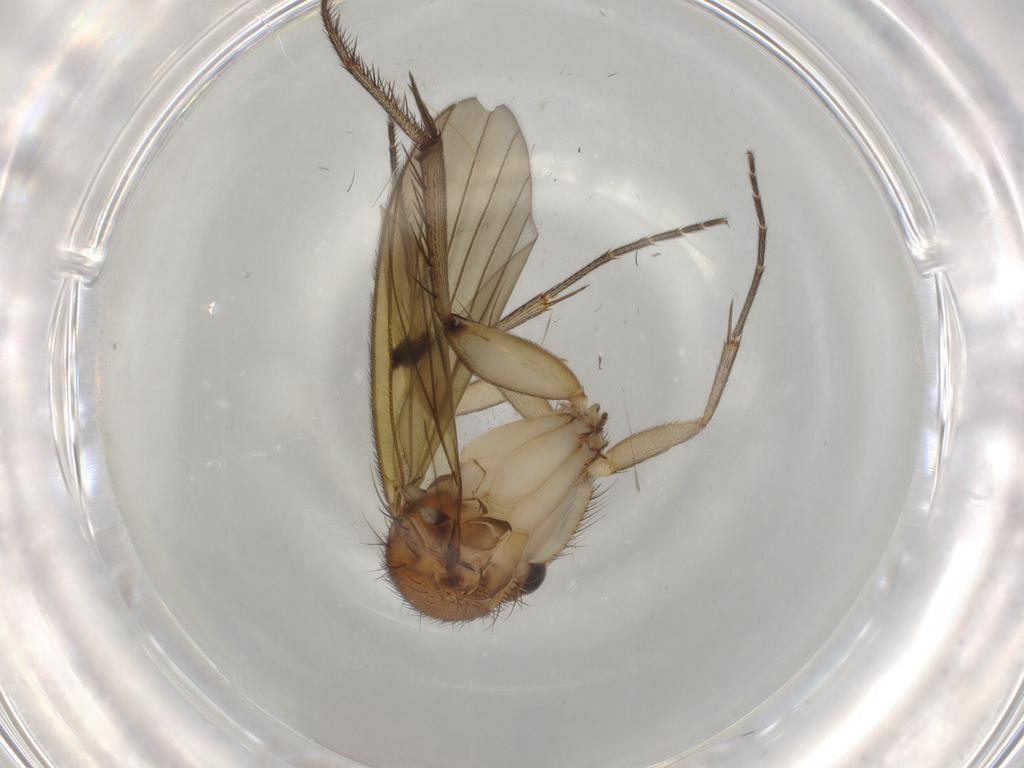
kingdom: Animalia
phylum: Arthropoda
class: Insecta
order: Diptera
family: Mycetophilidae
